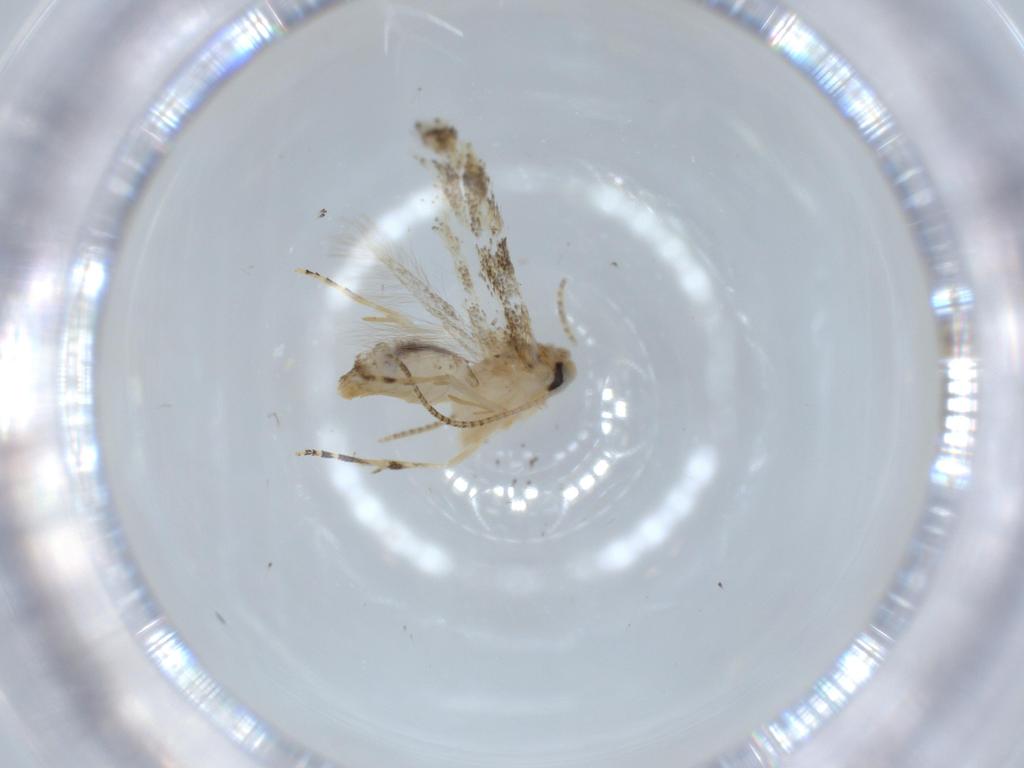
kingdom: Animalia
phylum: Arthropoda
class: Insecta
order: Lepidoptera
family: Bucculatricidae
